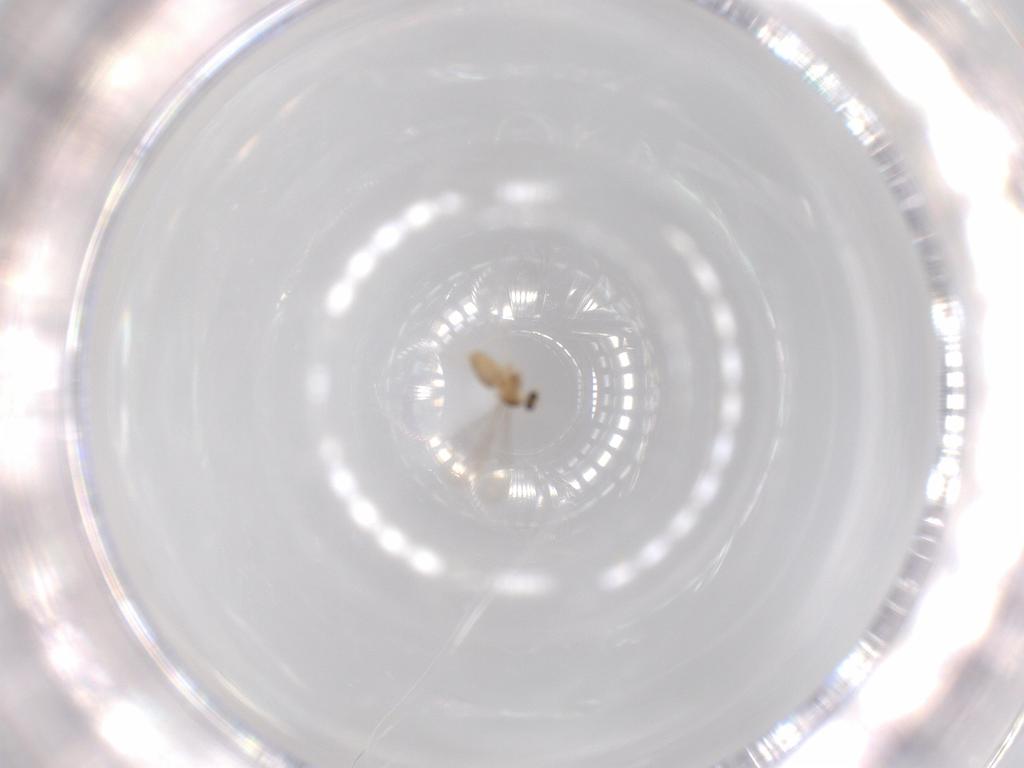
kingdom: Animalia
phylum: Arthropoda
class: Insecta
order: Diptera
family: Cecidomyiidae
